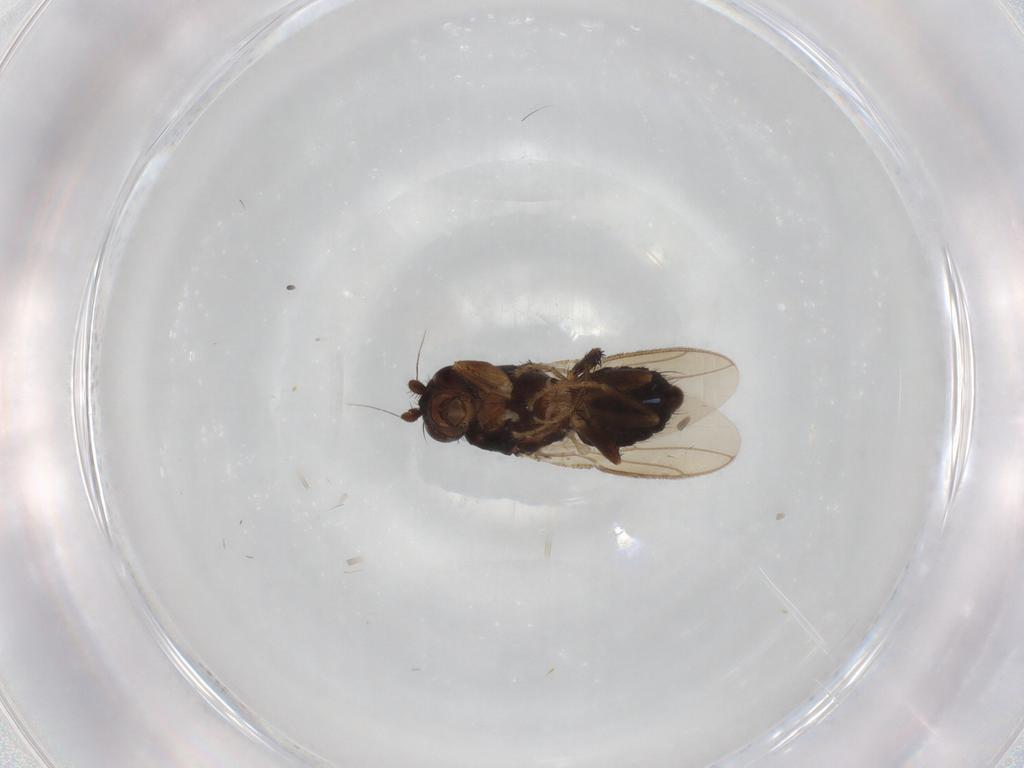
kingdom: Animalia
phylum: Arthropoda
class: Insecta
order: Diptera
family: Sphaeroceridae
